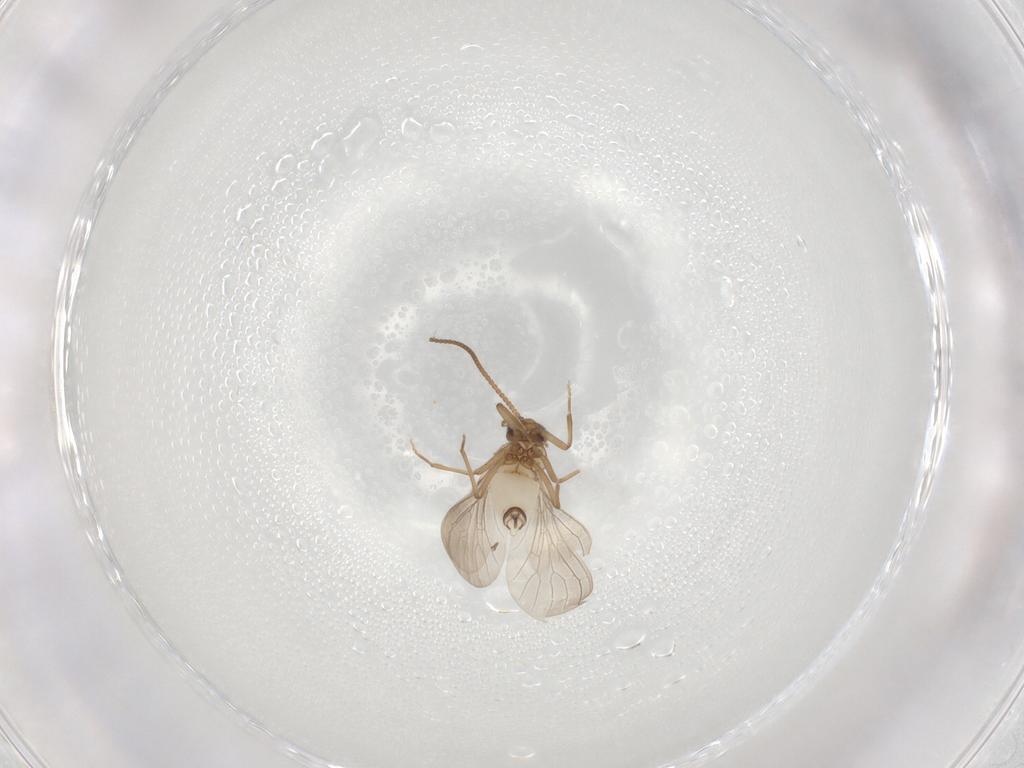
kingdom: Animalia
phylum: Arthropoda
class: Insecta
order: Neuroptera
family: Coniopterygidae
